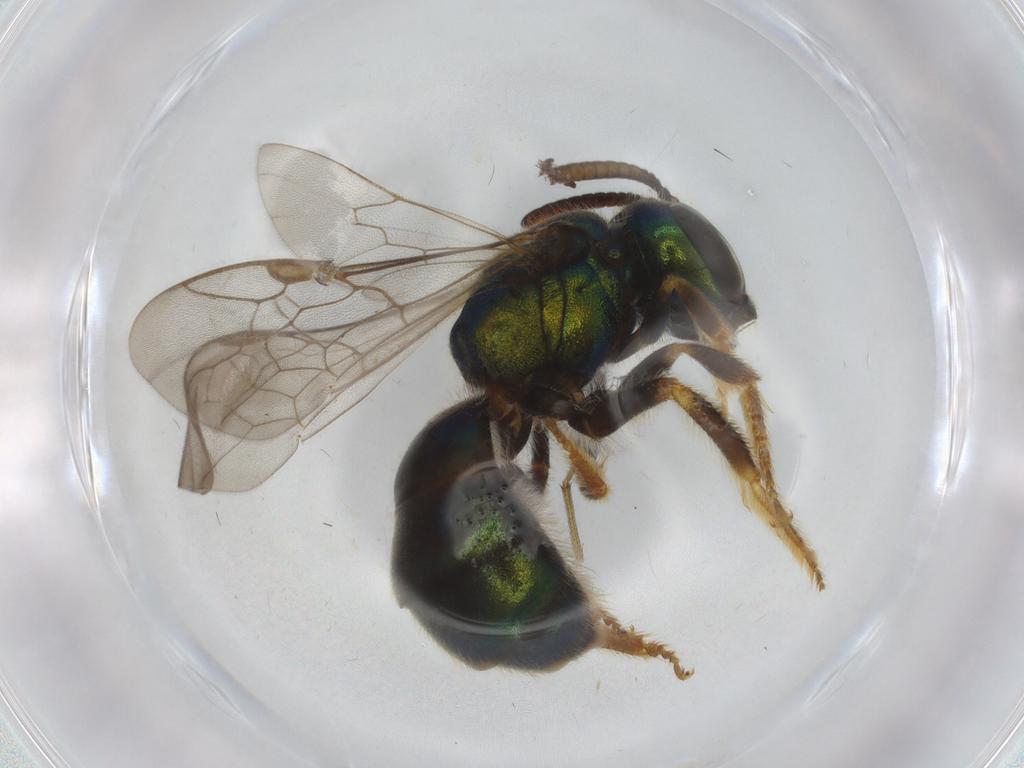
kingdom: Animalia
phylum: Arthropoda
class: Insecta
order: Hymenoptera
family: Halictidae
